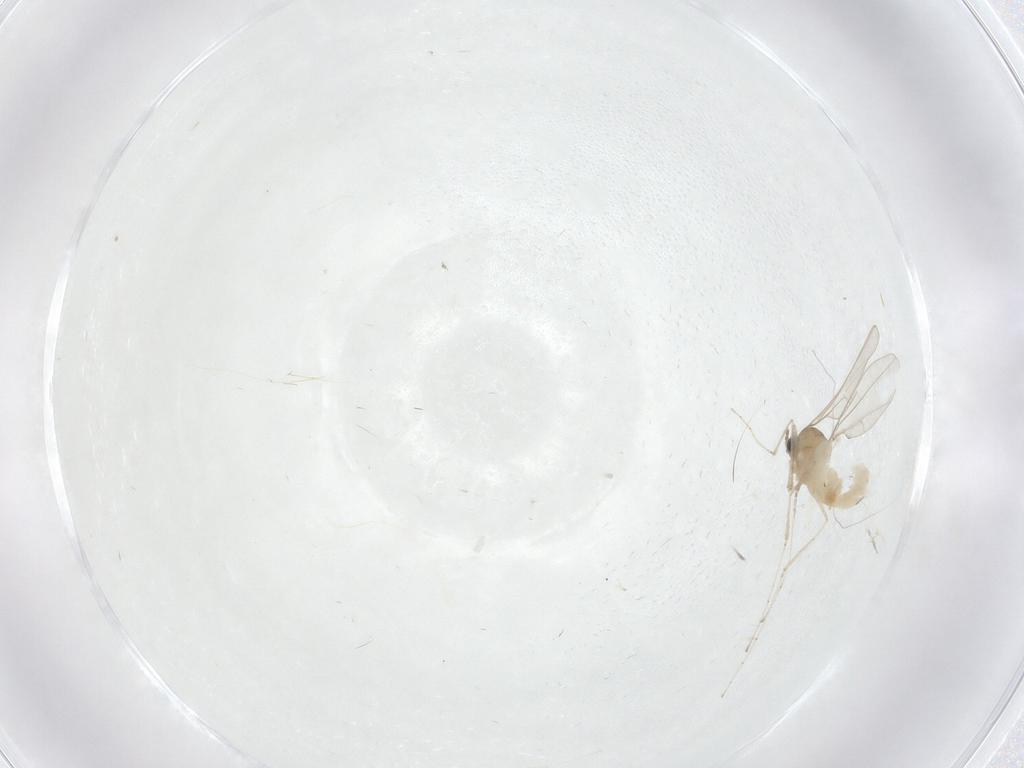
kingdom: Animalia
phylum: Arthropoda
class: Insecta
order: Diptera
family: Cecidomyiidae
